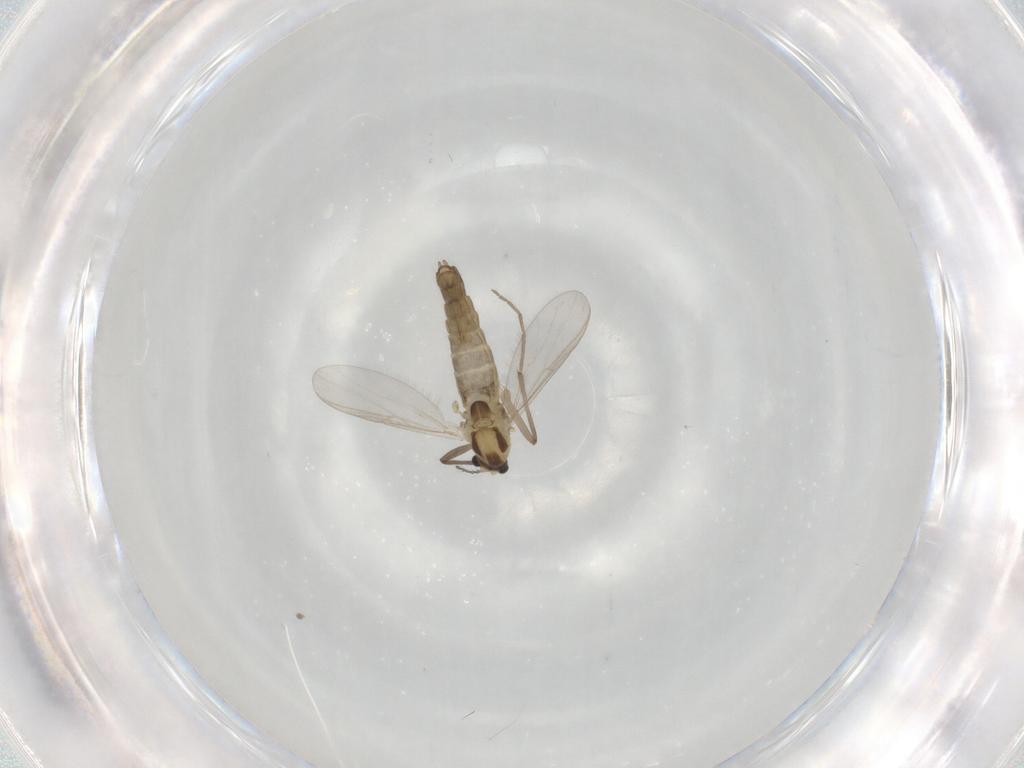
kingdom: Animalia
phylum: Arthropoda
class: Insecta
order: Diptera
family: Chironomidae
